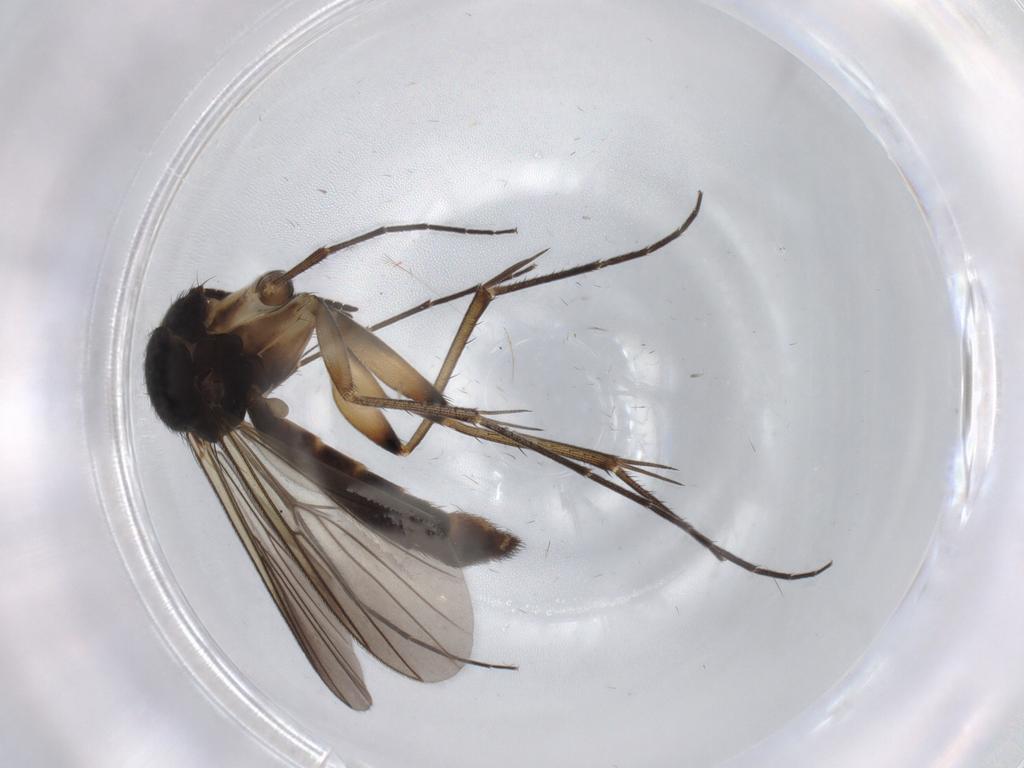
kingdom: Animalia
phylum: Arthropoda
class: Insecta
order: Diptera
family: Mycetophilidae
